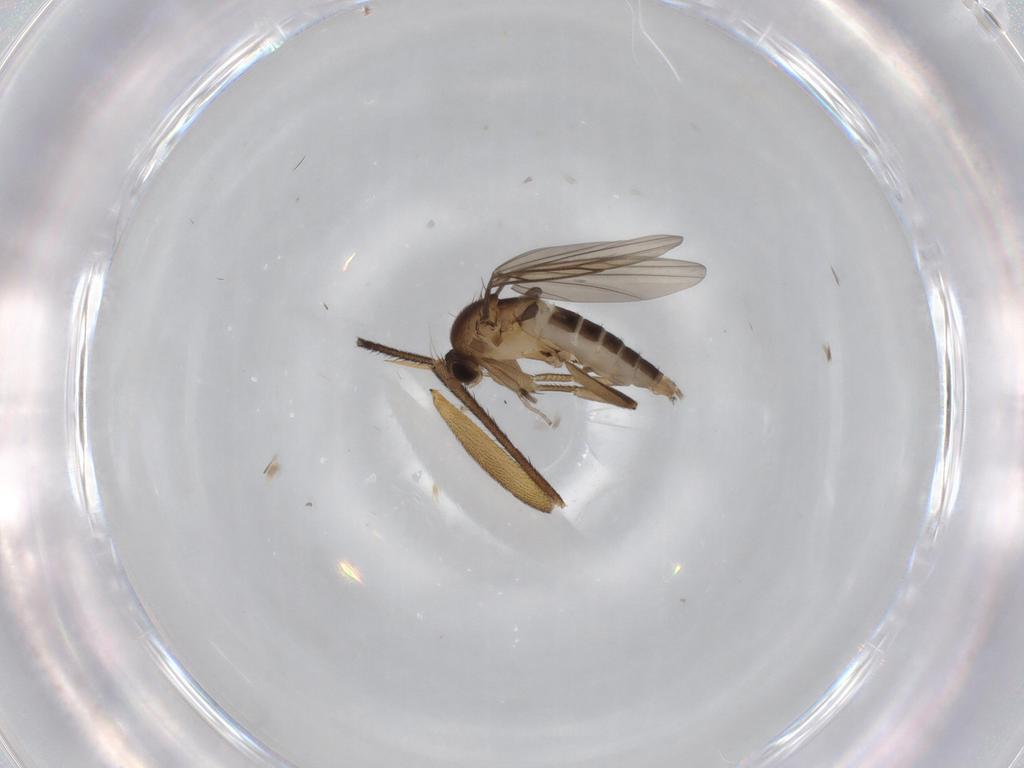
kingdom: Animalia
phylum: Arthropoda
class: Insecta
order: Diptera
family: Phoridae
